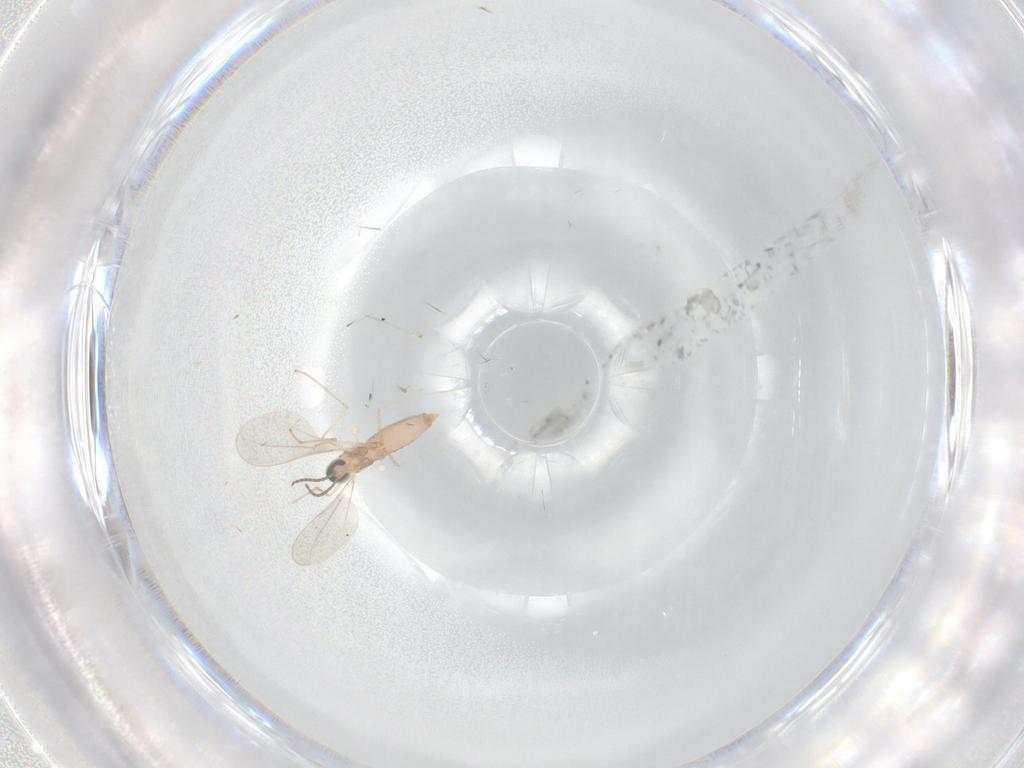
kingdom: Animalia
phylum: Arthropoda
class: Insecta
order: Diptera
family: Cecidomyiidae
